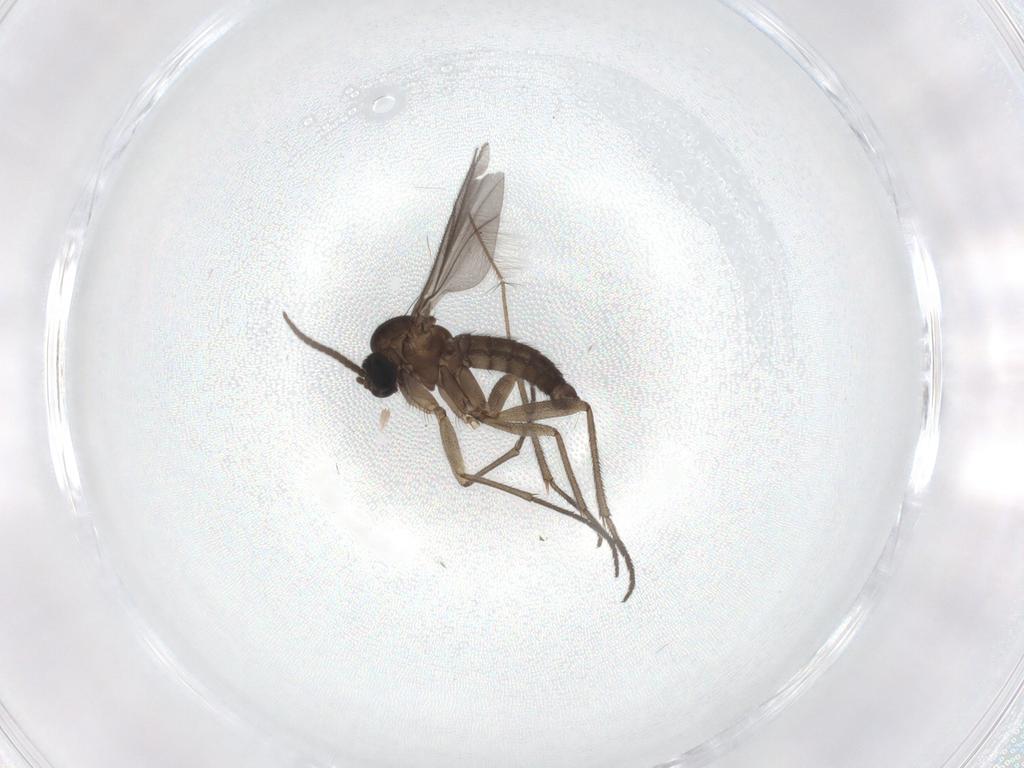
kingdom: Animalia
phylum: Arthropoda
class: Insecta
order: Diptera
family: Sciaridae
